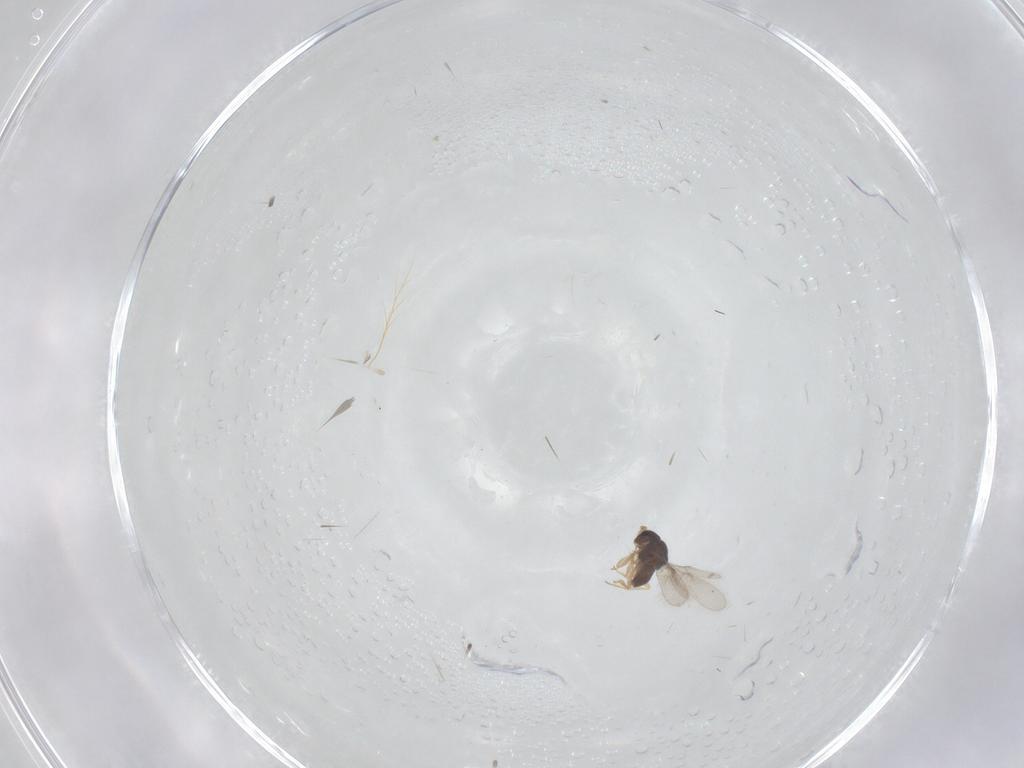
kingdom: Animalia
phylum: Arthropoda
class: Insecta
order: Hymenoptera
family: Scelionidae
